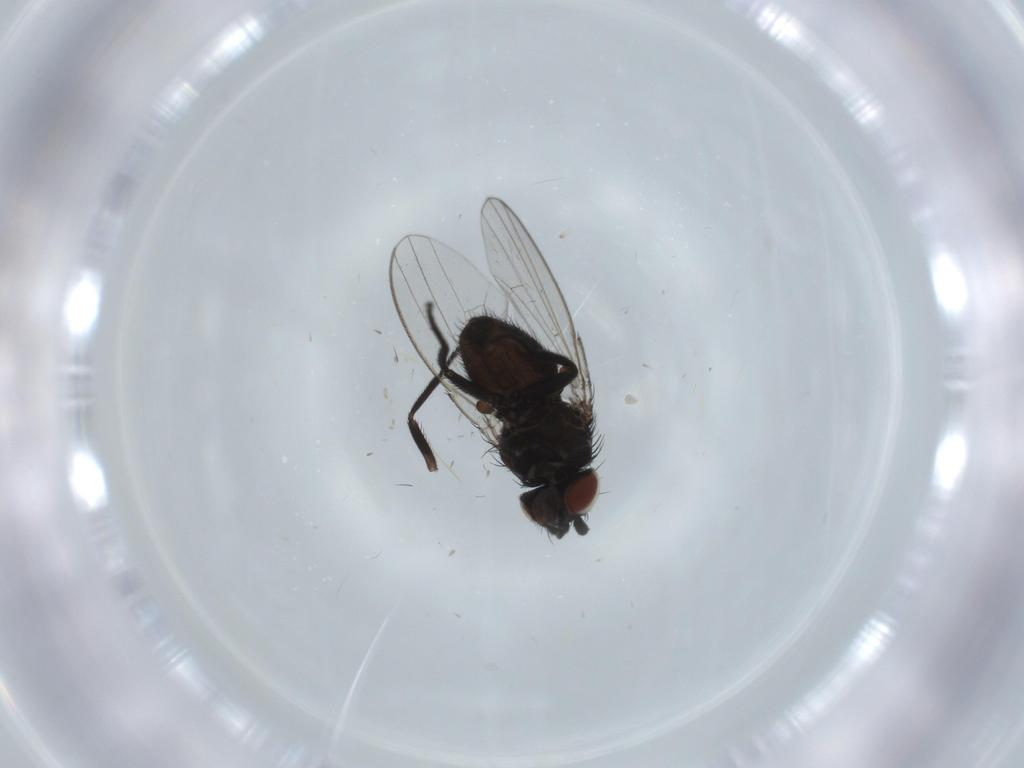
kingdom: Animalia
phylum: Arthropoda
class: Insecta
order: Diptera
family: Milichiidae
